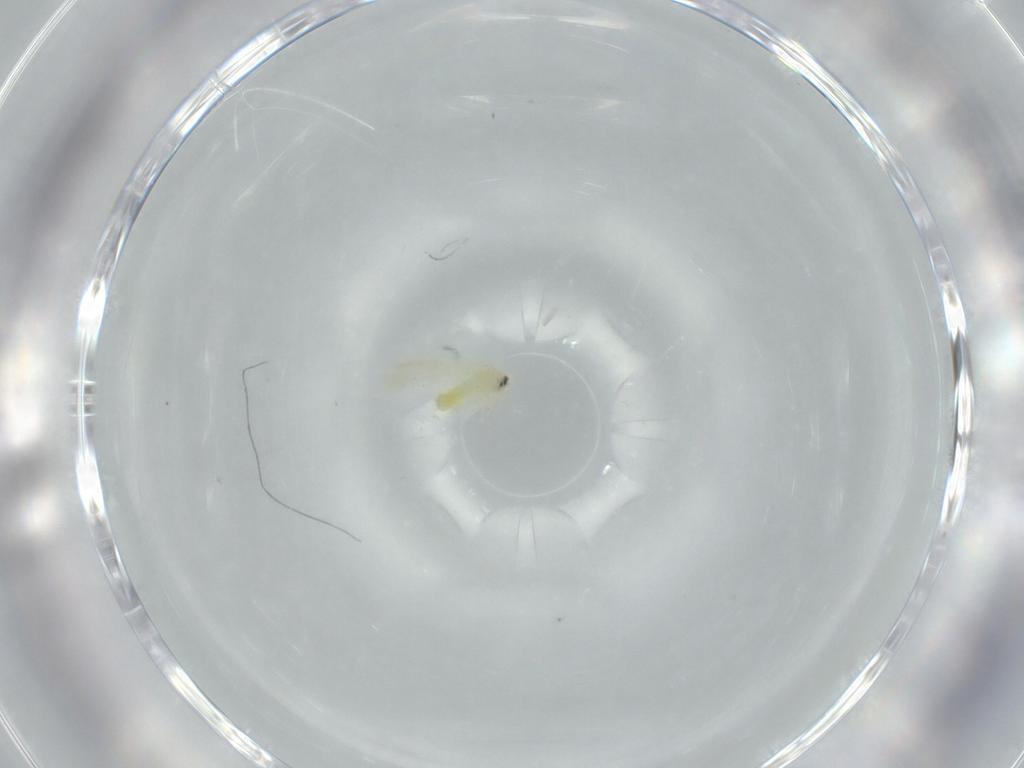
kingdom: Animalia
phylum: Arthropoda
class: Insecta
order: Hemiptera
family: Aleyrodidae
